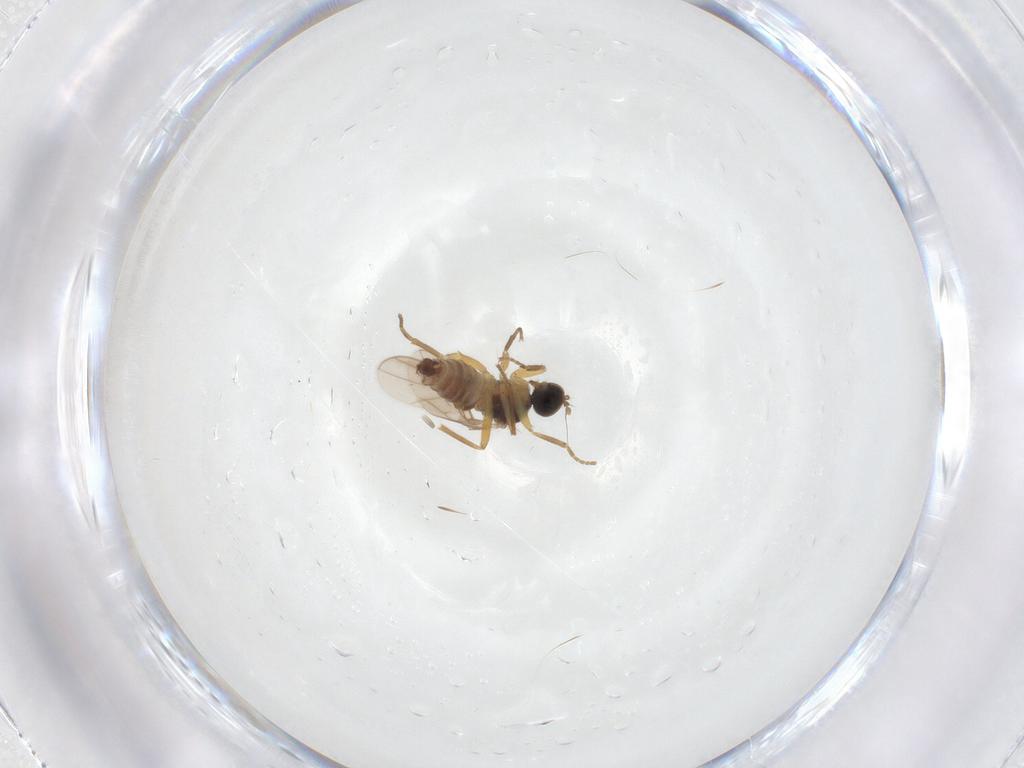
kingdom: Animalia
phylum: Arthropoda
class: Insecta
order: Diptera
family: Hybotidae
